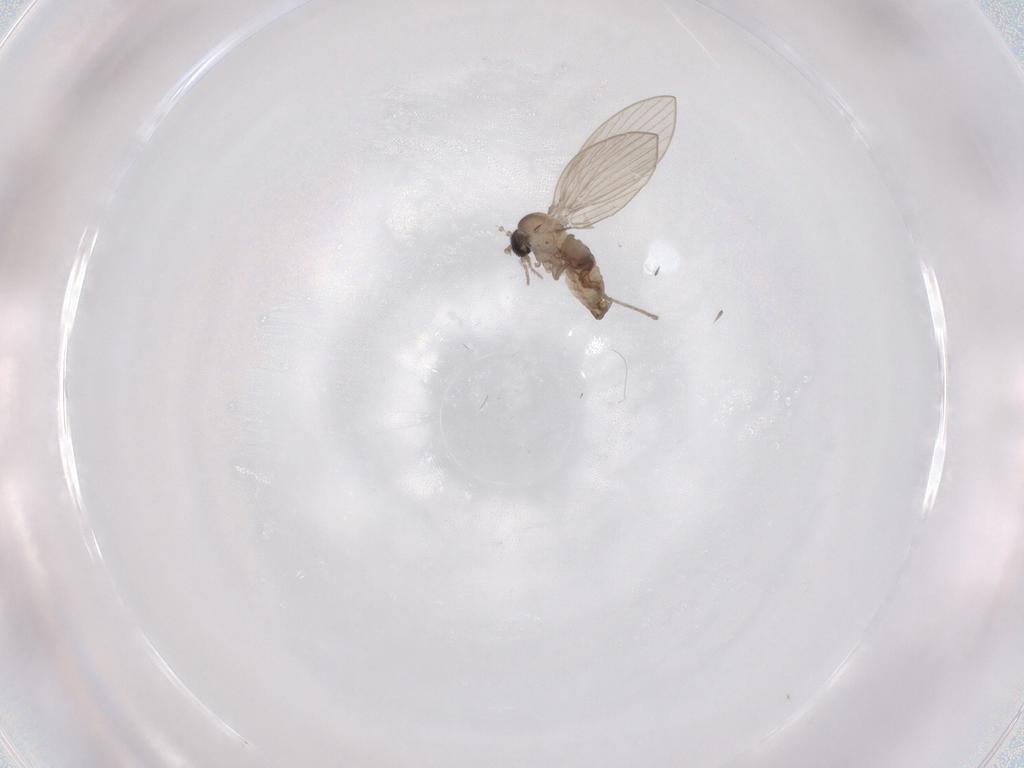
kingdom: Animalia
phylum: Arthropoda
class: Insecta
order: Diptera
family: Psychodidae
